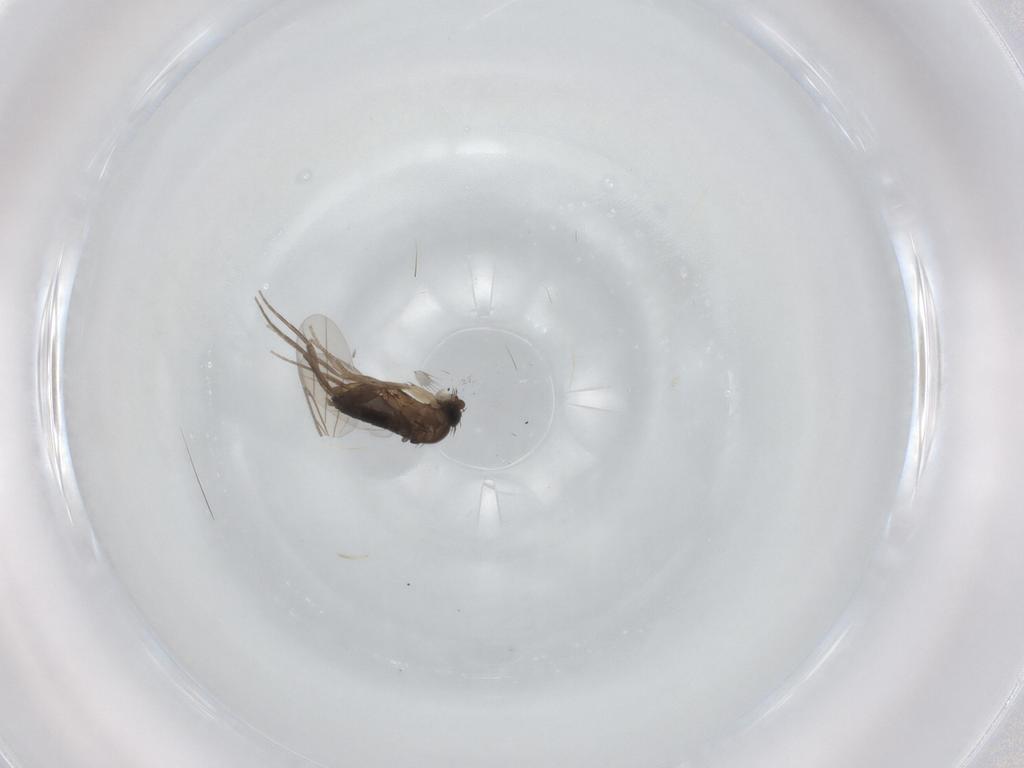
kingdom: Animalia
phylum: Arthropoda
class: Insecta
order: Diptera
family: Phoridae
